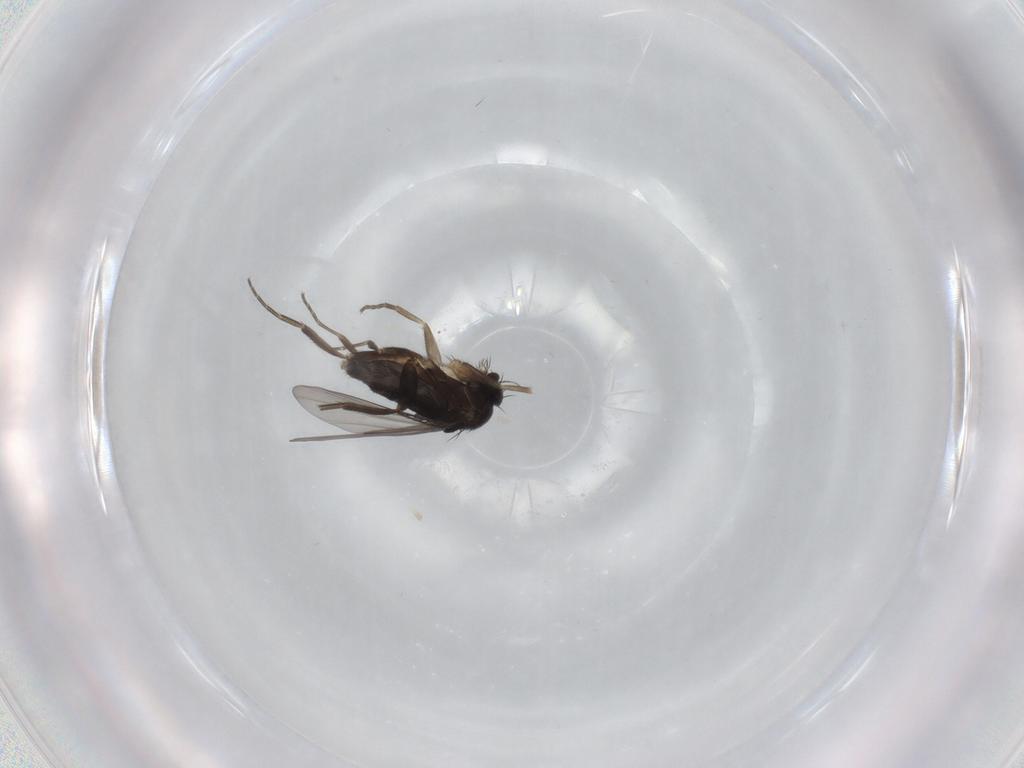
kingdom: Animalia
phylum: Arthropoda
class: Insecta
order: Diptera
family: Phoridae
